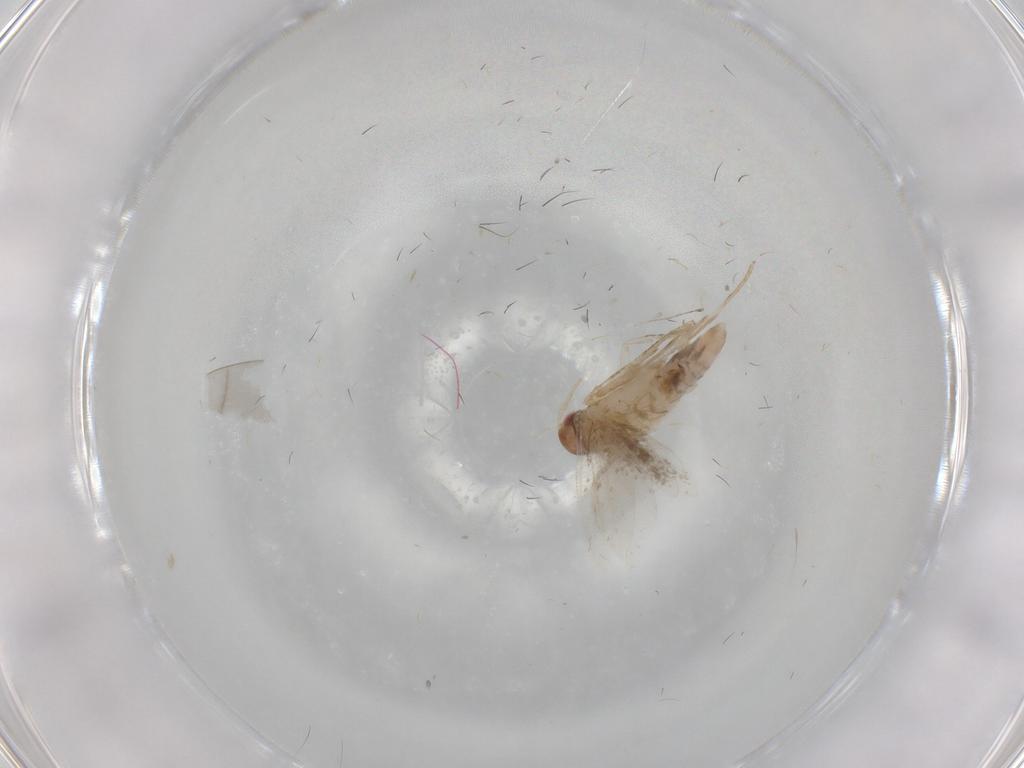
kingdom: Animalia
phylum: Arthropoda
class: Insecta
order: Lepidoptera
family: Gelechiidae
